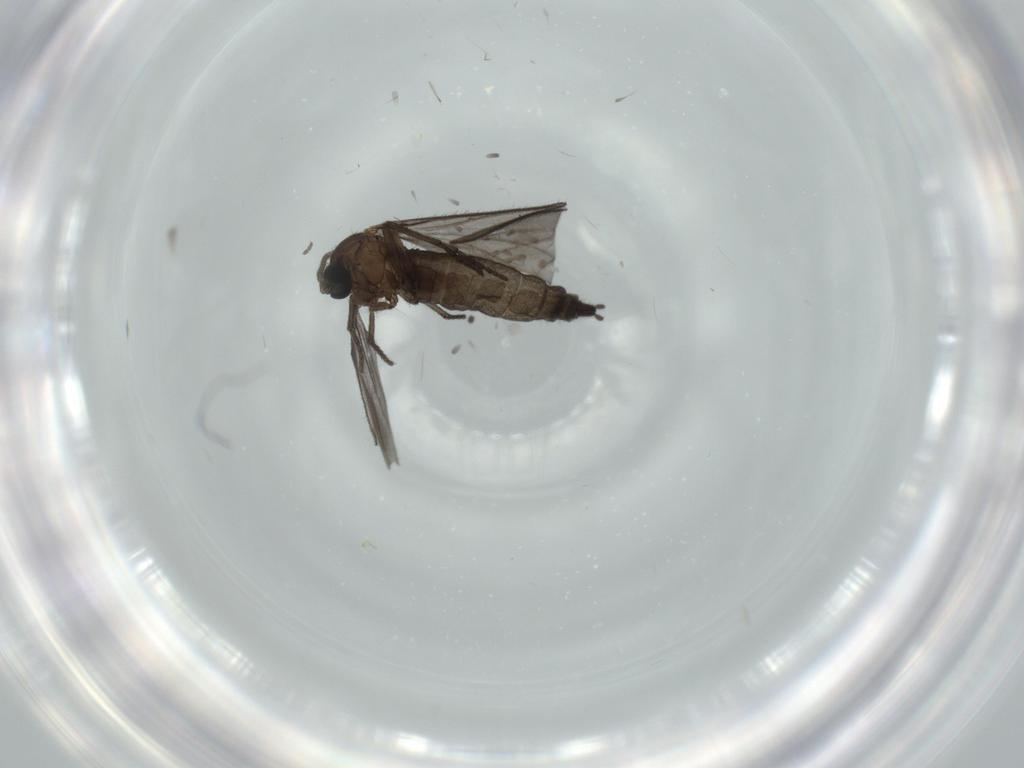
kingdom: Animalia
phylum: Arthropoda
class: Insecta
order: Diptera
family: Sciaridae
